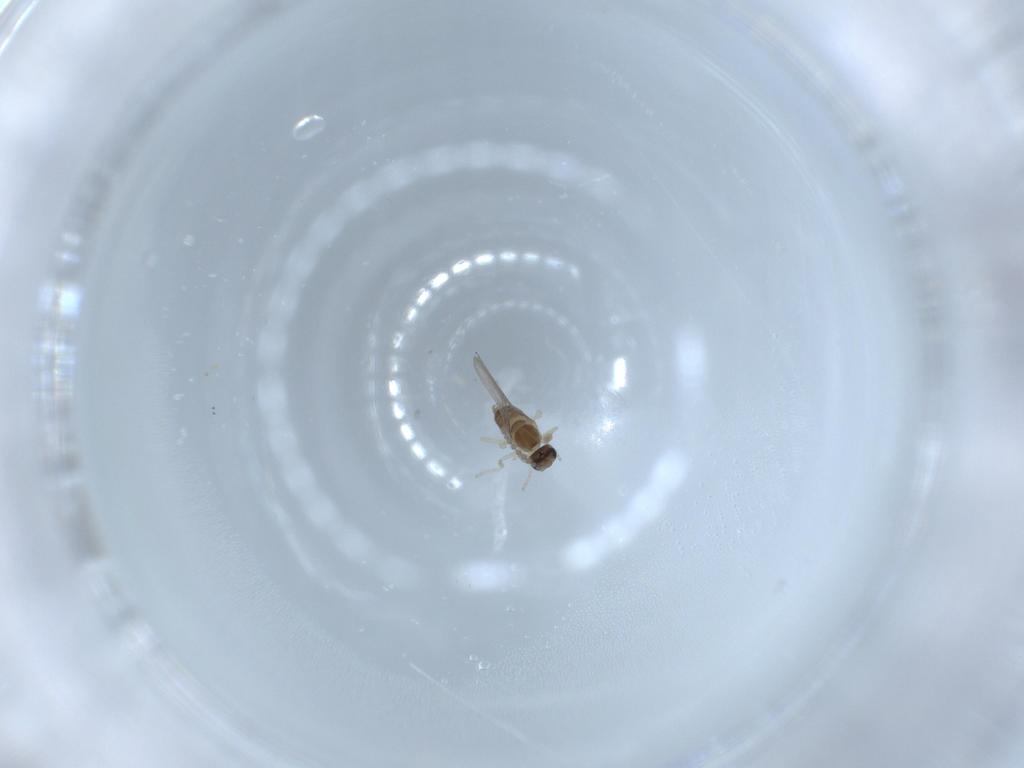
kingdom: Animalia
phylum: Arthropoda
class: Insecta
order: Diptera
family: Cecidomyiidae
